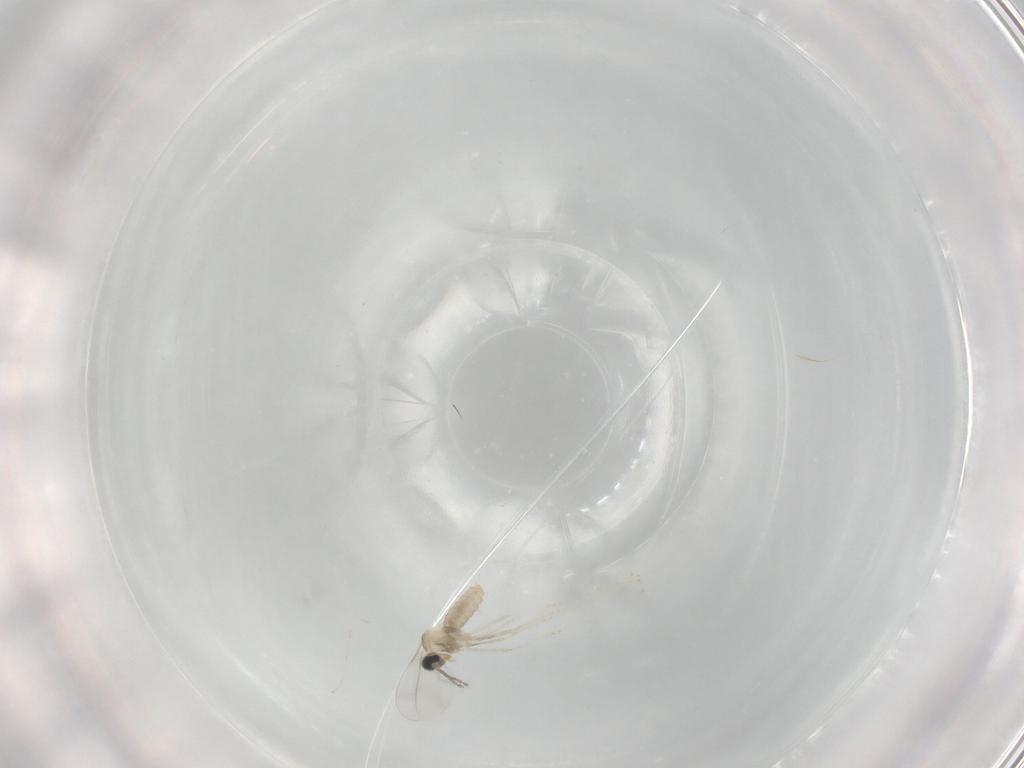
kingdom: Animalia
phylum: Arthropoda
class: Insecta
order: Diptera
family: Cecidomyiidae
